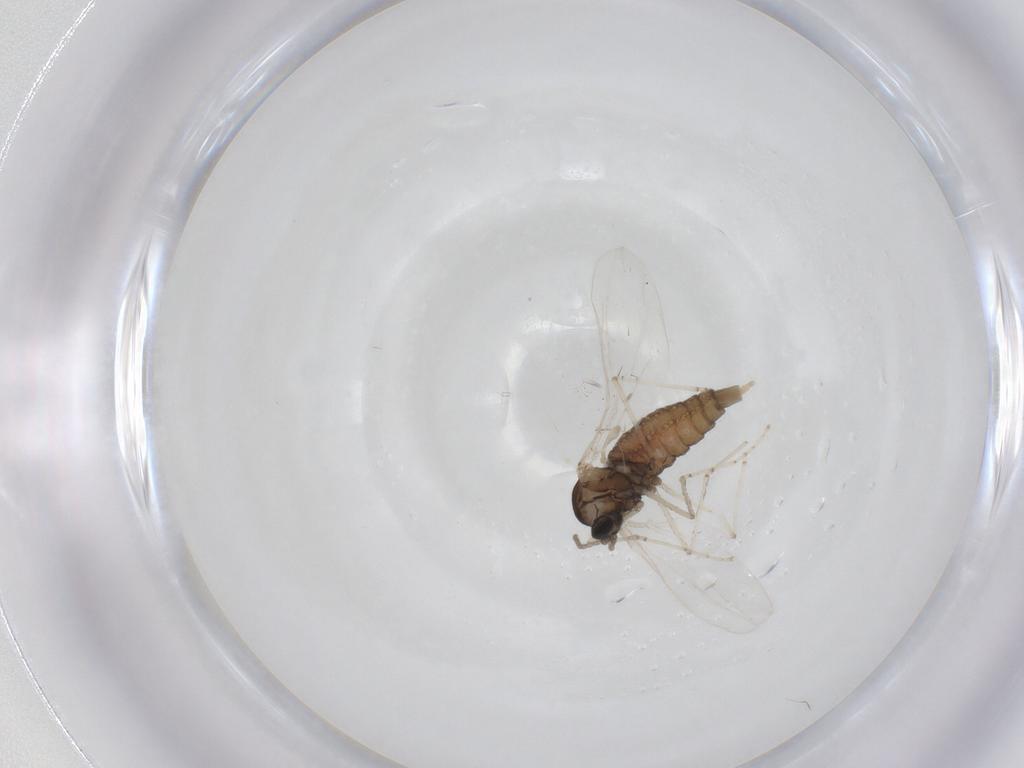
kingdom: Animalia
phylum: Arthropoda
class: Insecta
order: Diptera
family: Cecidomyiidae
